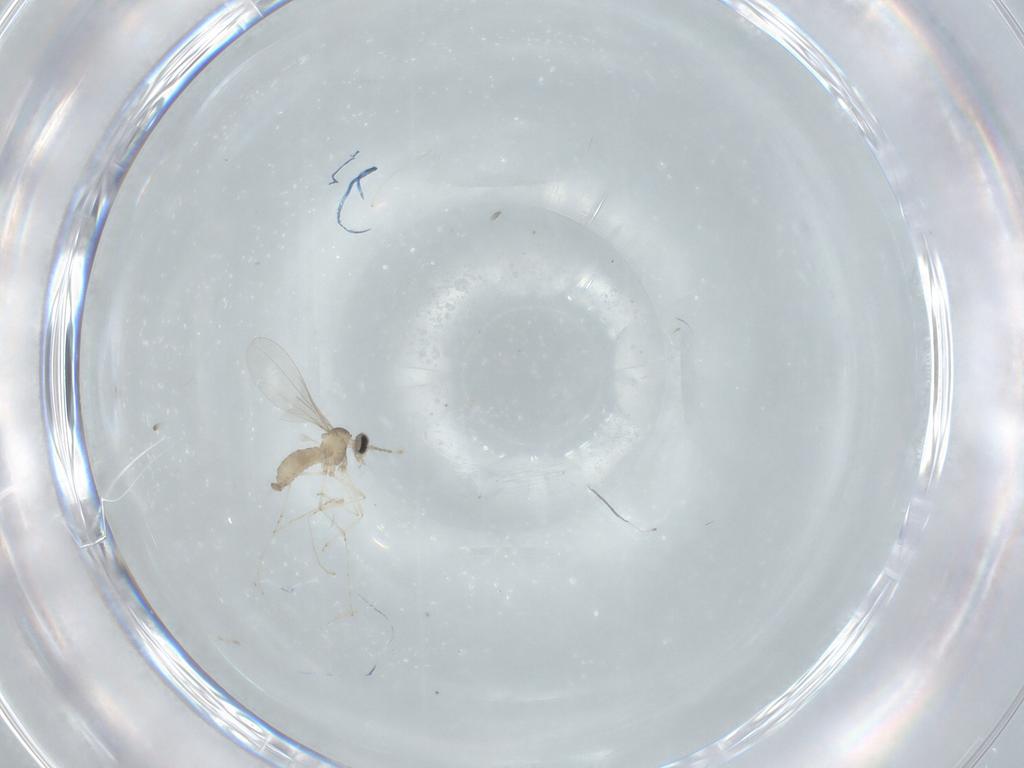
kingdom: Animalia
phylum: Arthropoda
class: Insecta
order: Diptera
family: Cecidomyiidae
